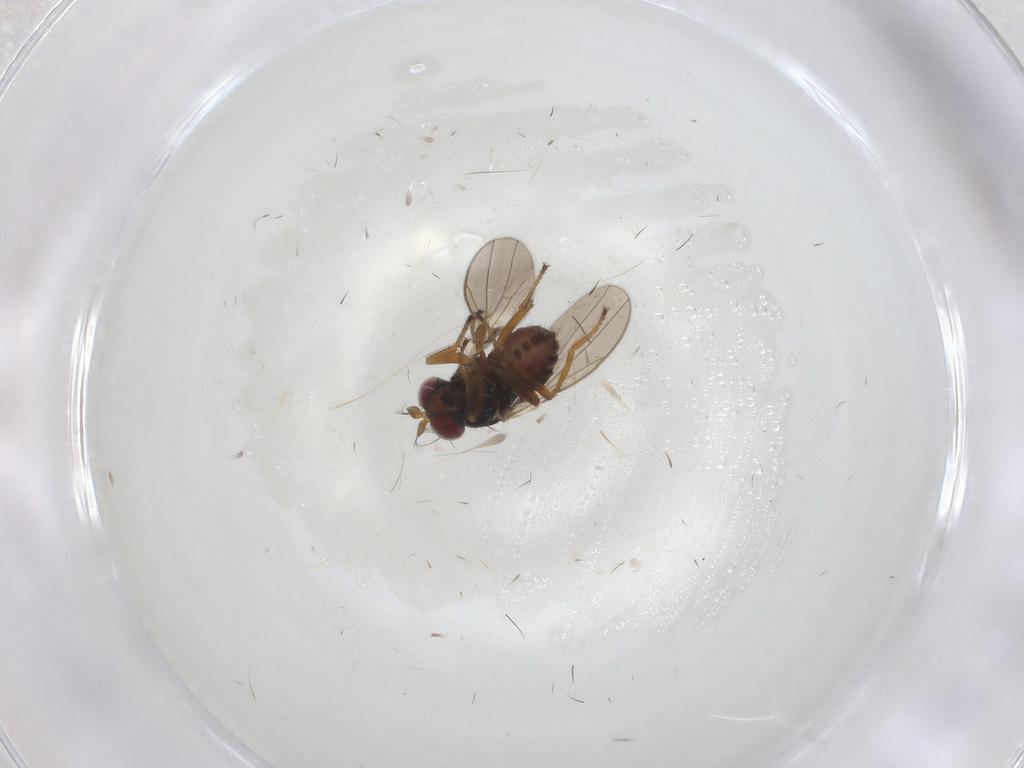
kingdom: Animalia
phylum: Arthropoda
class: Insecta
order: Diptera
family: Ephydridae
